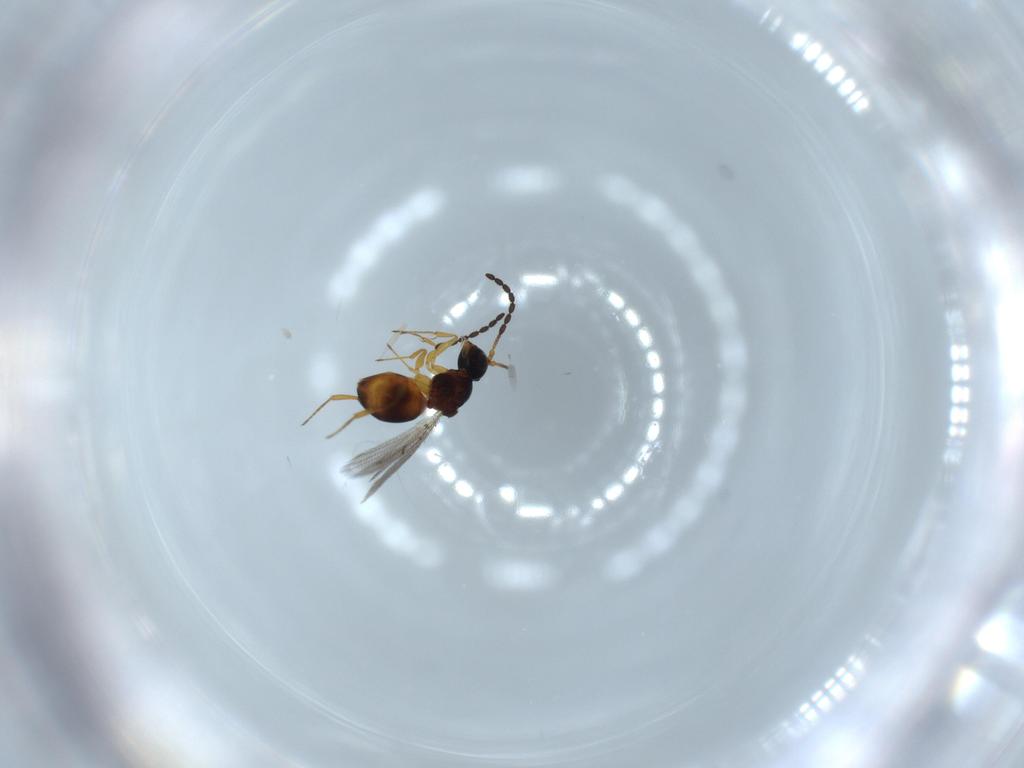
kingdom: Animalia
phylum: Arthropoda
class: Insecta
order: Hymenoptera
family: Figitidae
